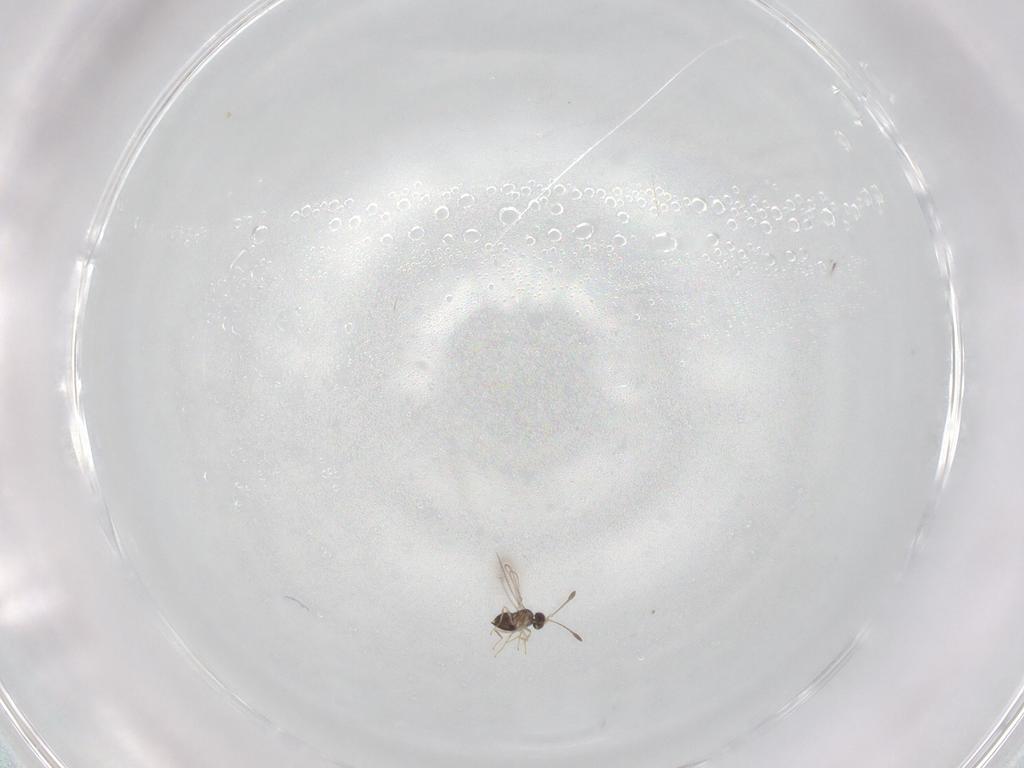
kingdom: Animalia
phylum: Arthropoda
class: Insecta
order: Hymenoptera
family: Mymaridae
